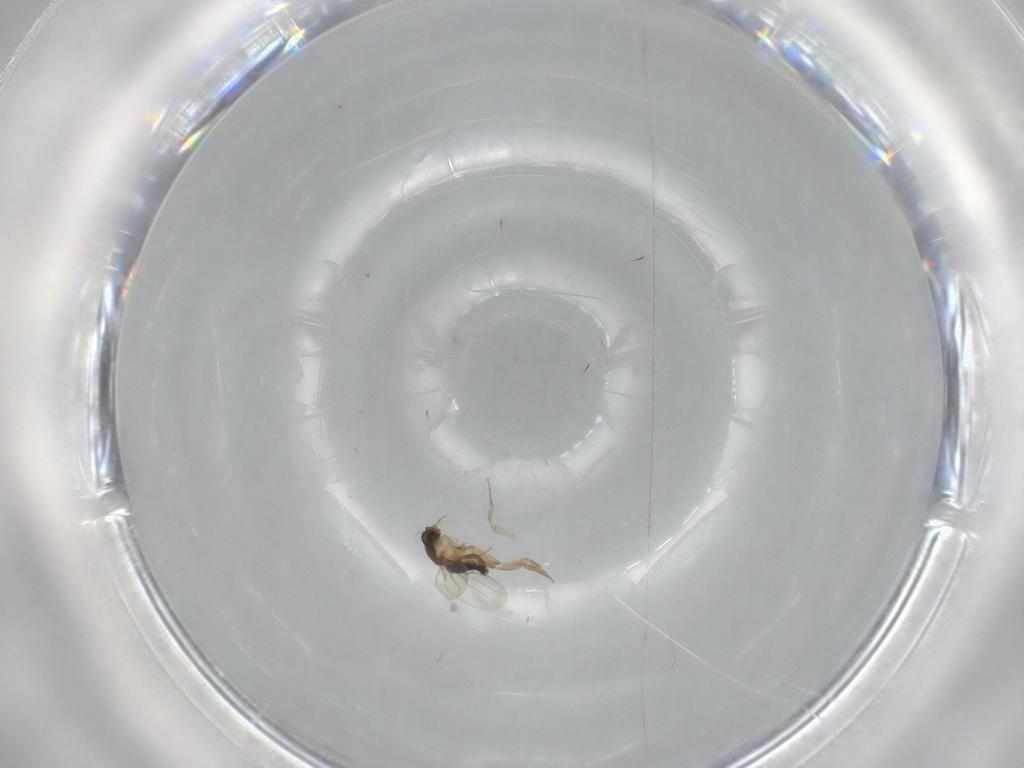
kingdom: Animalia
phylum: Arthropoda
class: Insecta
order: Diptera
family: Phoridae
